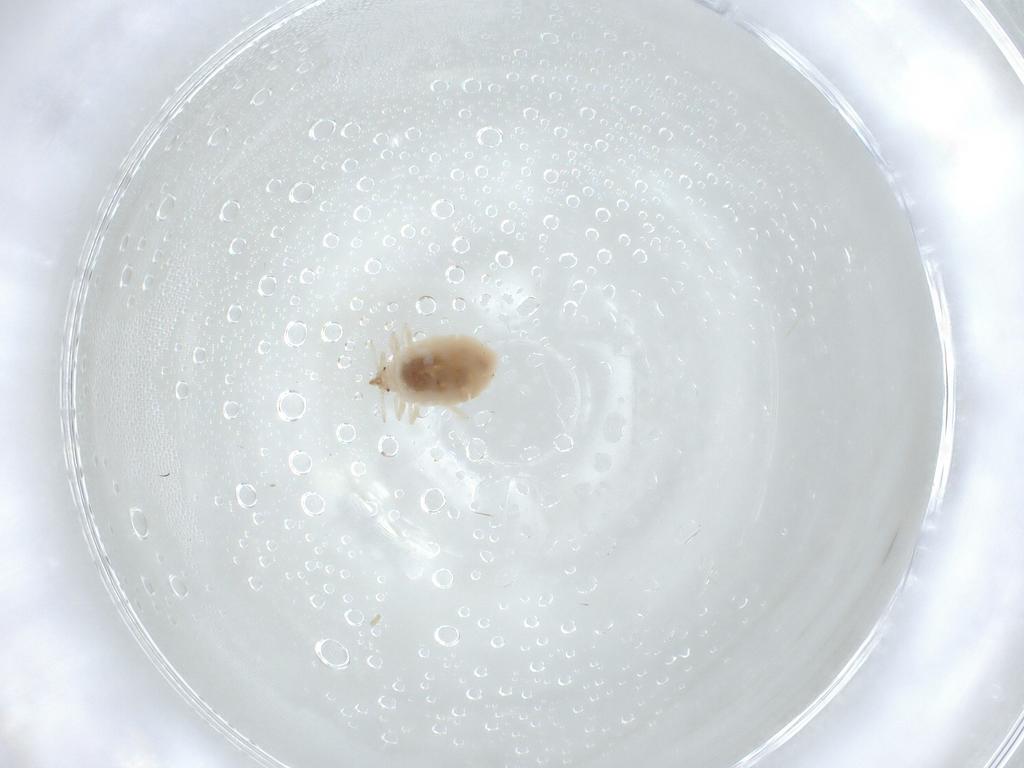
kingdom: Animalia
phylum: Arthropoda
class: Insecta
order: Neuroptera
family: Coniopterygidae
